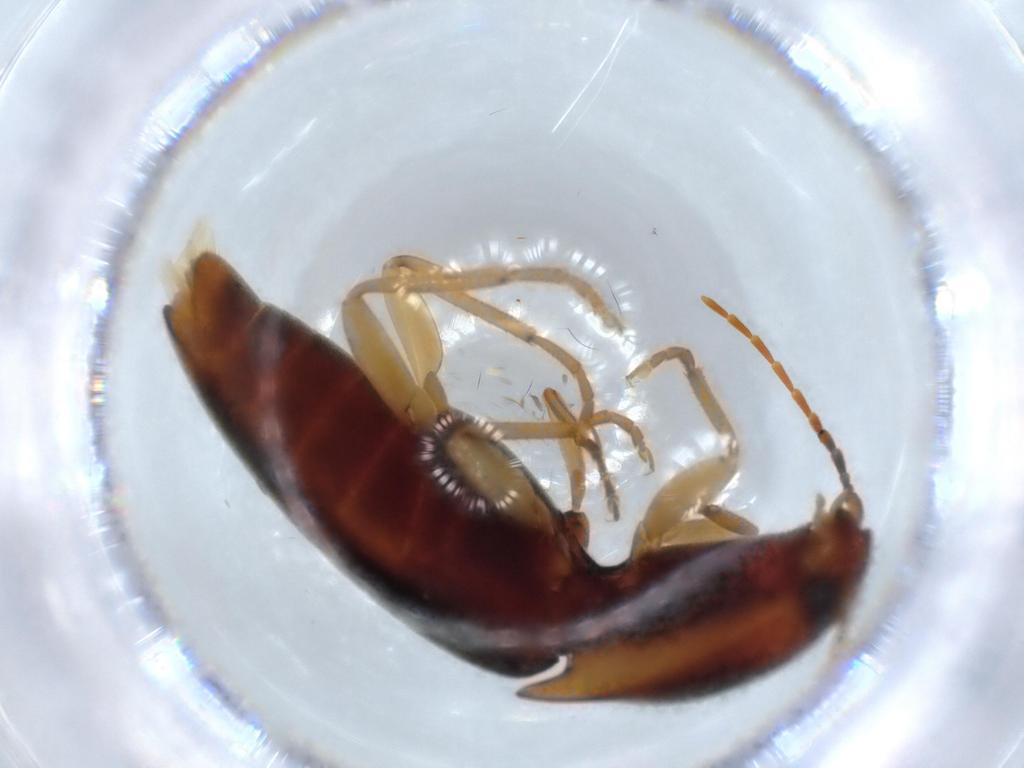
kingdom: Animalia
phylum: Arthropoda
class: Insecta
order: Coleoptera
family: Elateridae
